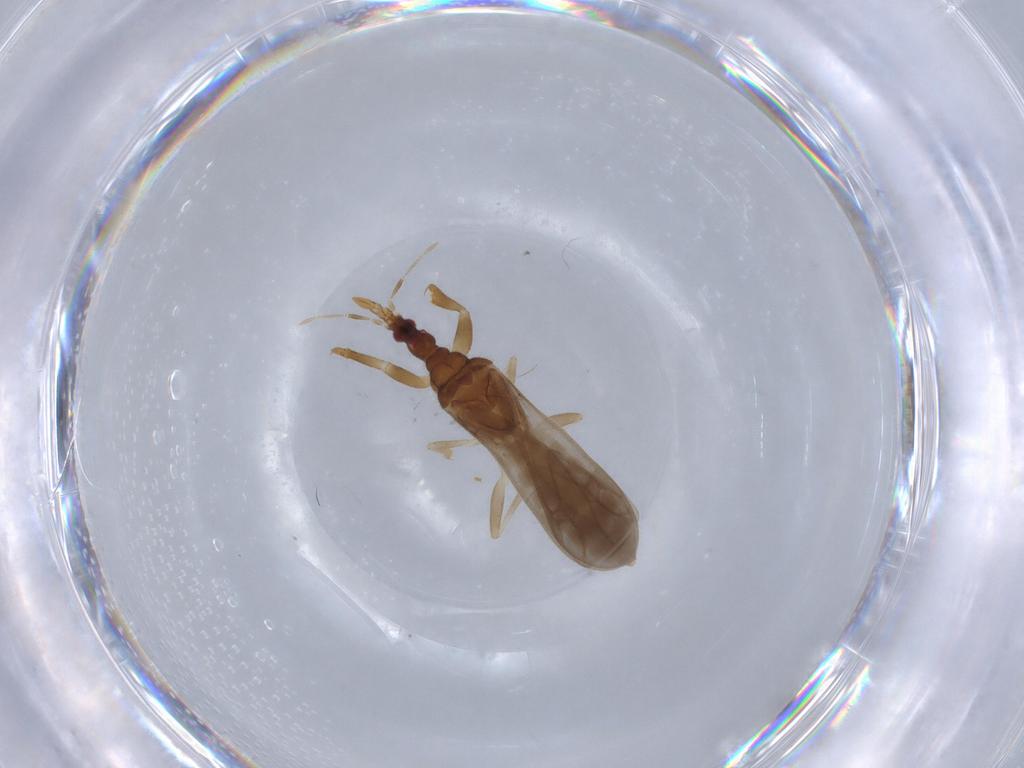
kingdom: Animalia
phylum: Arthropoda
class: Insecta
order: Hemiptera
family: Enicocephalidae
